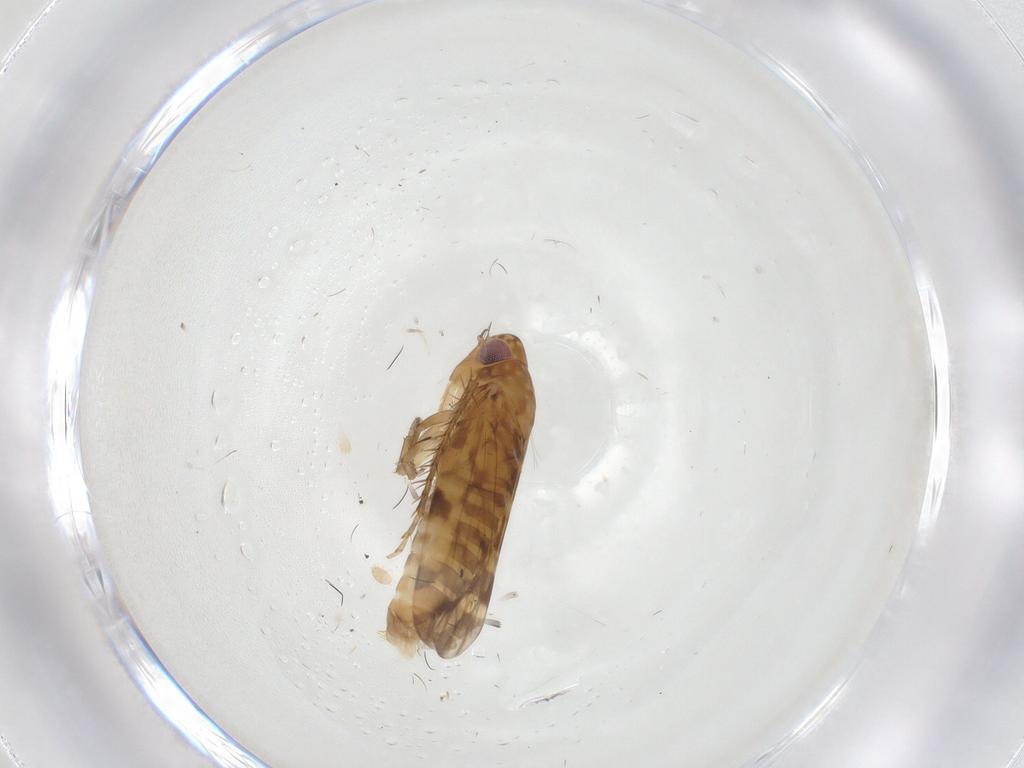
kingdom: Animalia
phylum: Arthropoda
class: Insecta
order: Hemiptera
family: Cicadellidae
